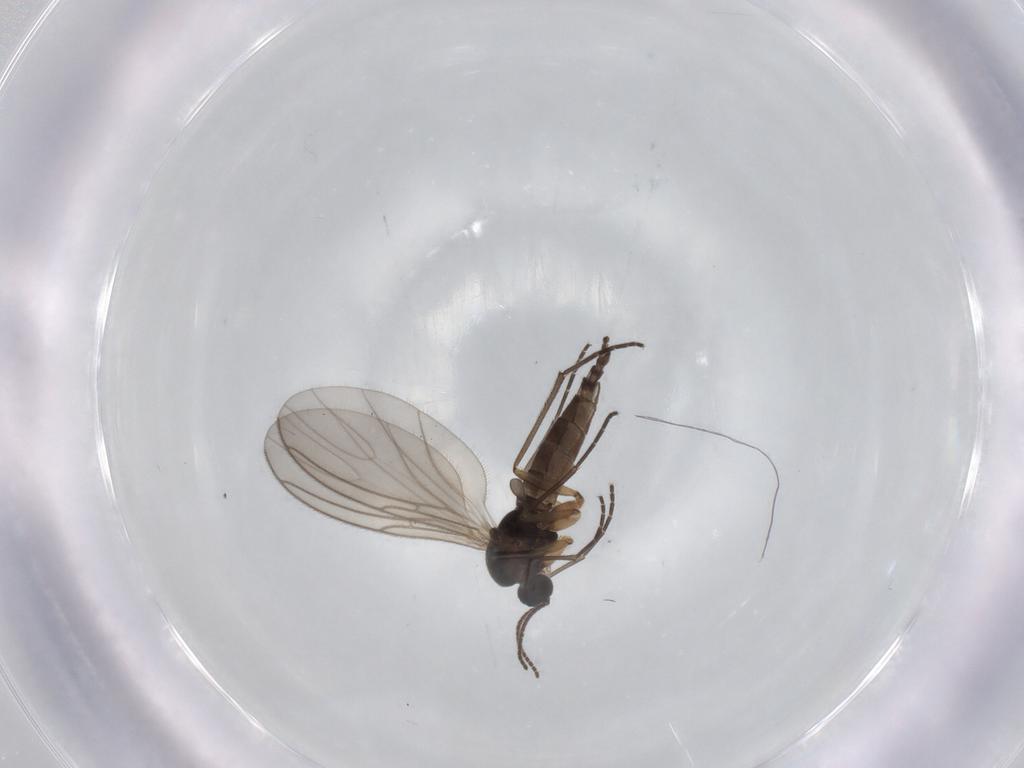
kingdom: Animalia
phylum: Arthropoda
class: Insecta
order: Diptera
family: Sciaridae
